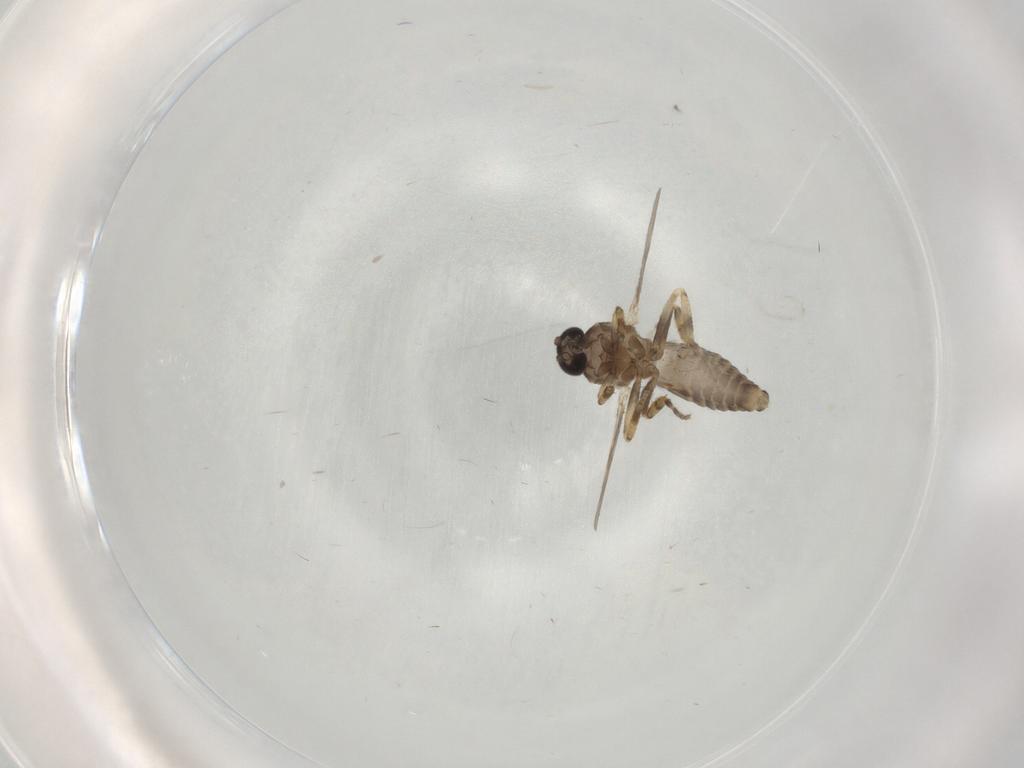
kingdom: Animalia
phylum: Arthropoda
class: Insecta
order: Diptera
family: Ceratopogonidae
